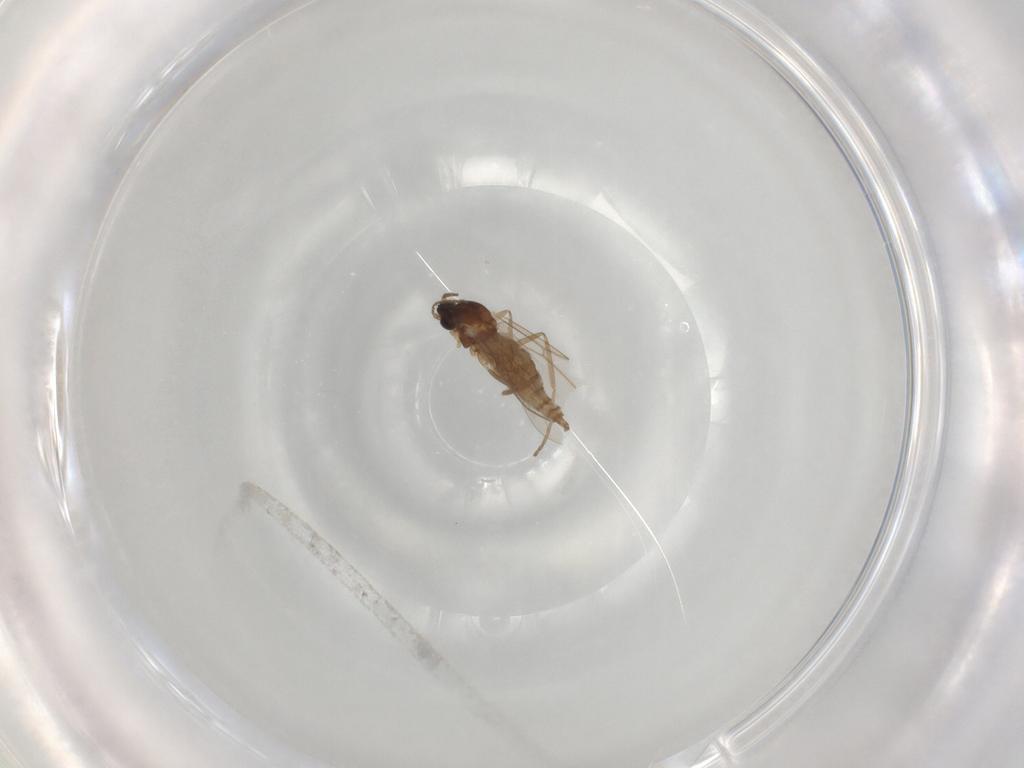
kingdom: Animalia
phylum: Arthropoda
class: Insecta
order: Diptera
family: Cecidomyiidae
